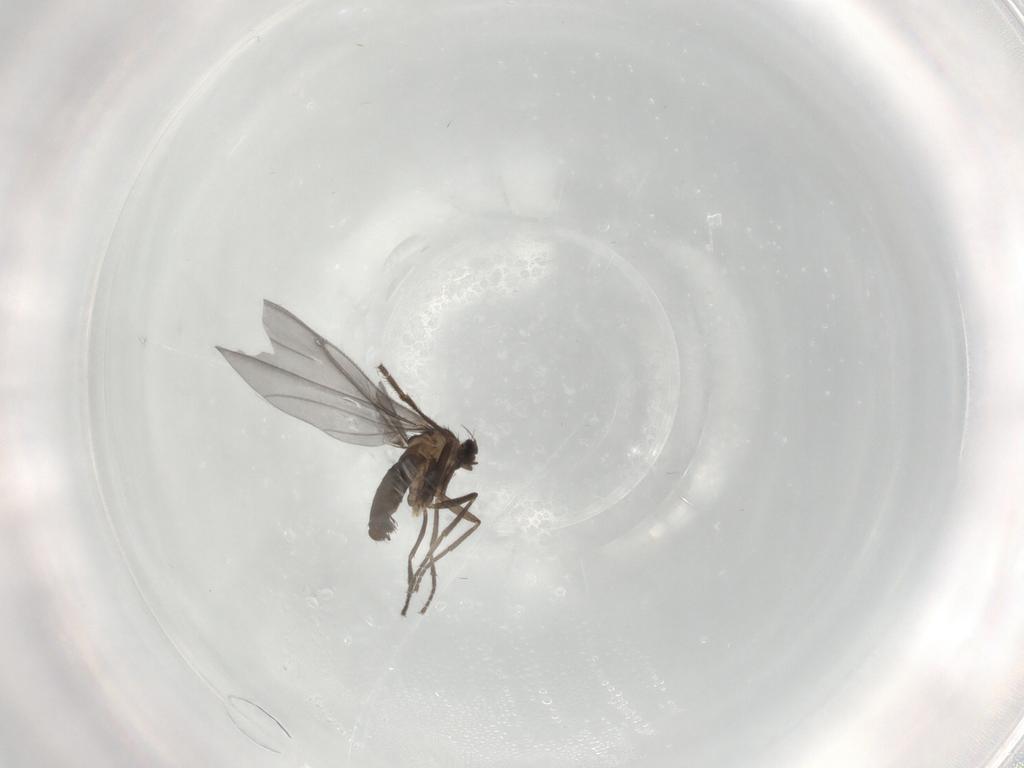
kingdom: Animalia
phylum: Arthropoda
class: Insecta
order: Diptera
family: Phoridae
